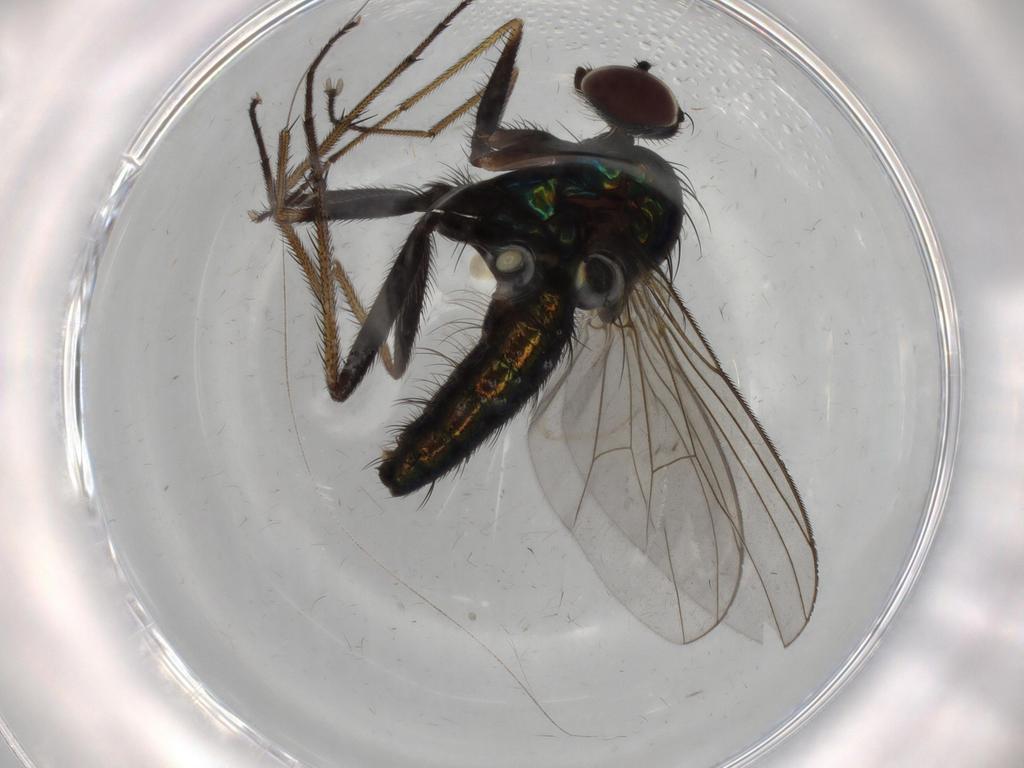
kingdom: Animalia
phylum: Arthropoda
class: Insecta
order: Diptera
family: Dolichopodidae
